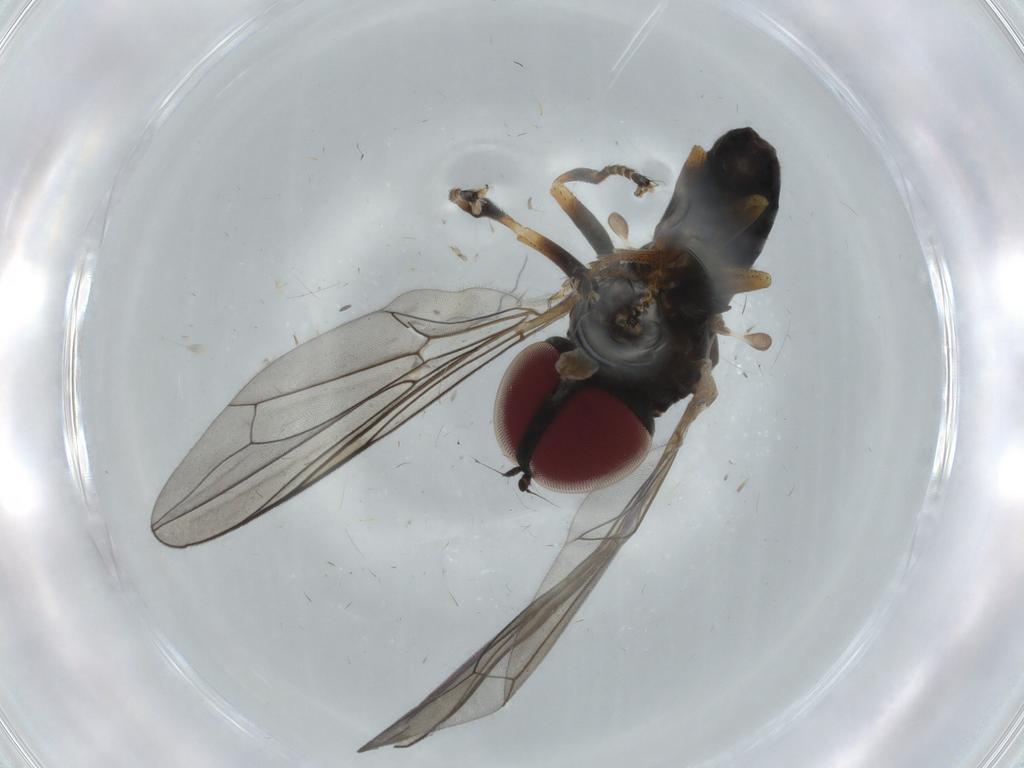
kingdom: Animalia
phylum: Arthropoda
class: Insecta
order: Diptera
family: Pipunculidae
